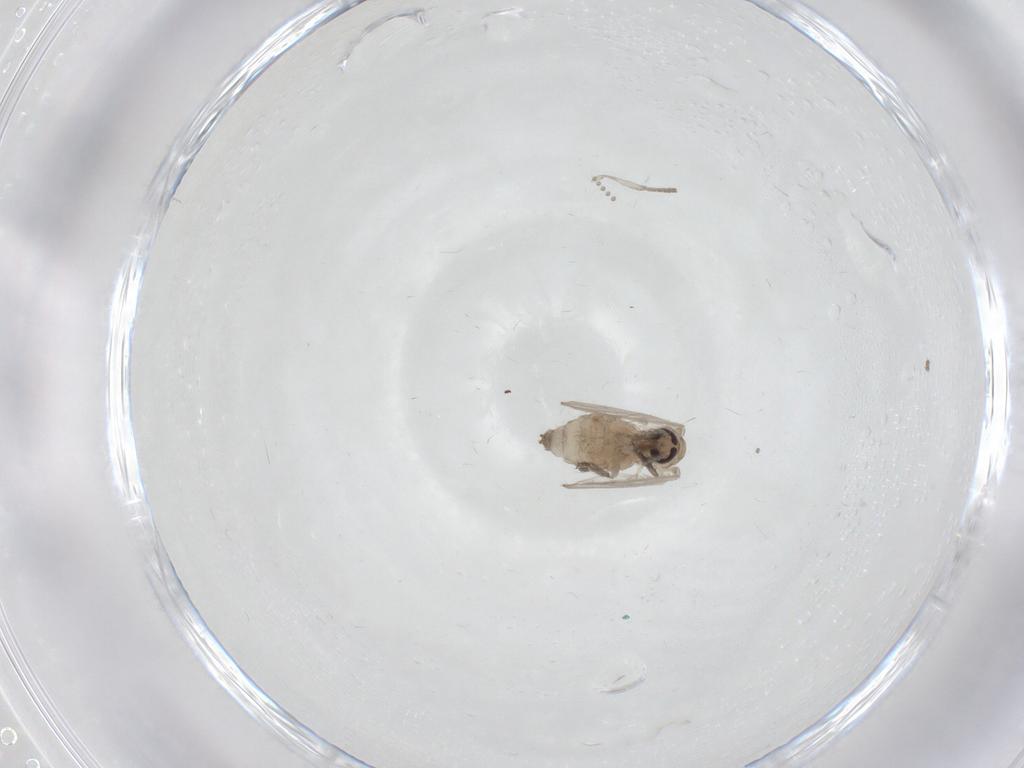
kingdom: Animalia
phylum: Arthropoda
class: Insecta
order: Diptera
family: Psychodidae
